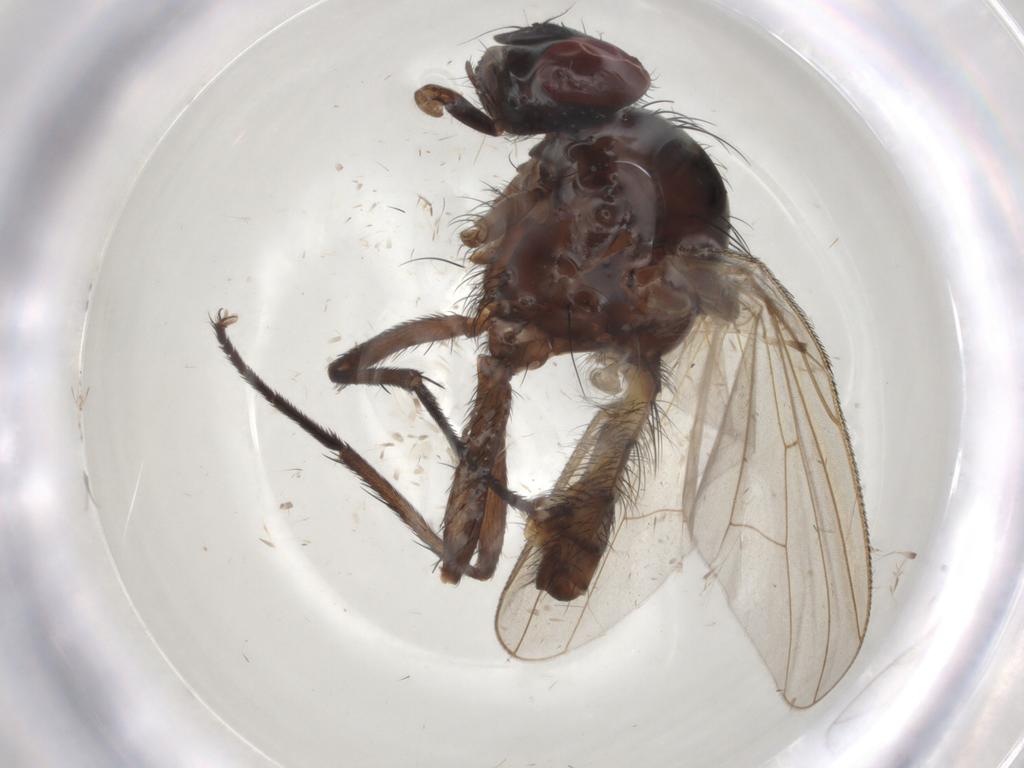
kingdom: Animalia
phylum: Arthropoda
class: Insecta
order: Diptera
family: Anthomyiidae
